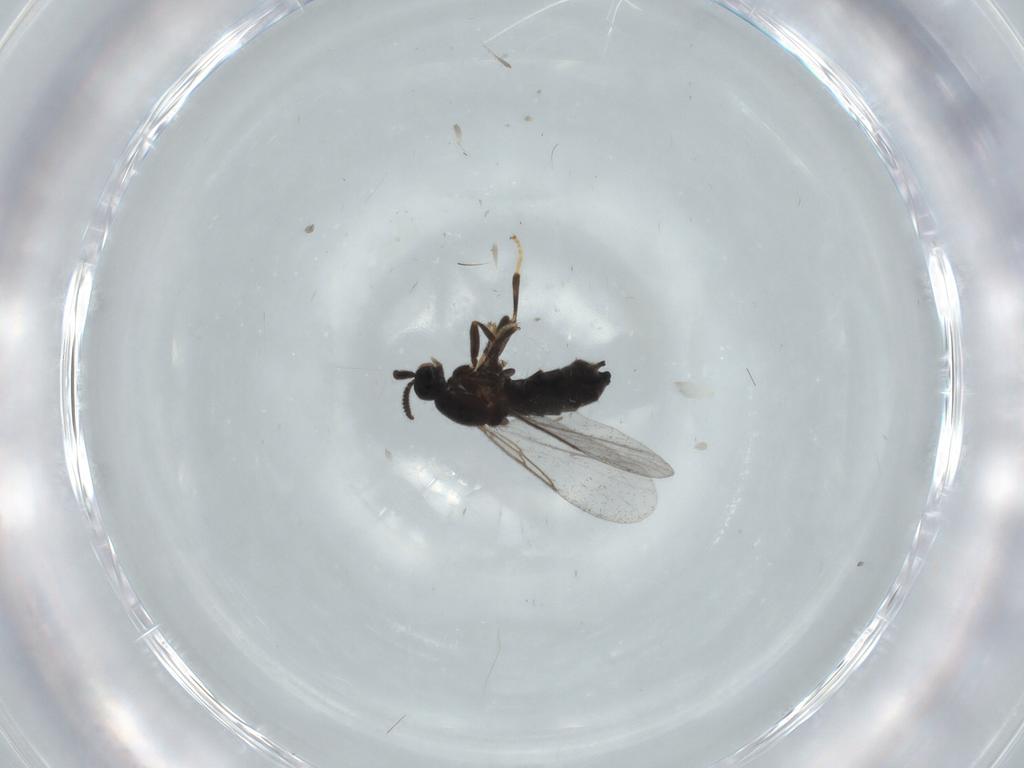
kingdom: Animalia
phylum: Arthropoda
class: Insecta
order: Diptera
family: Scatopsidae
